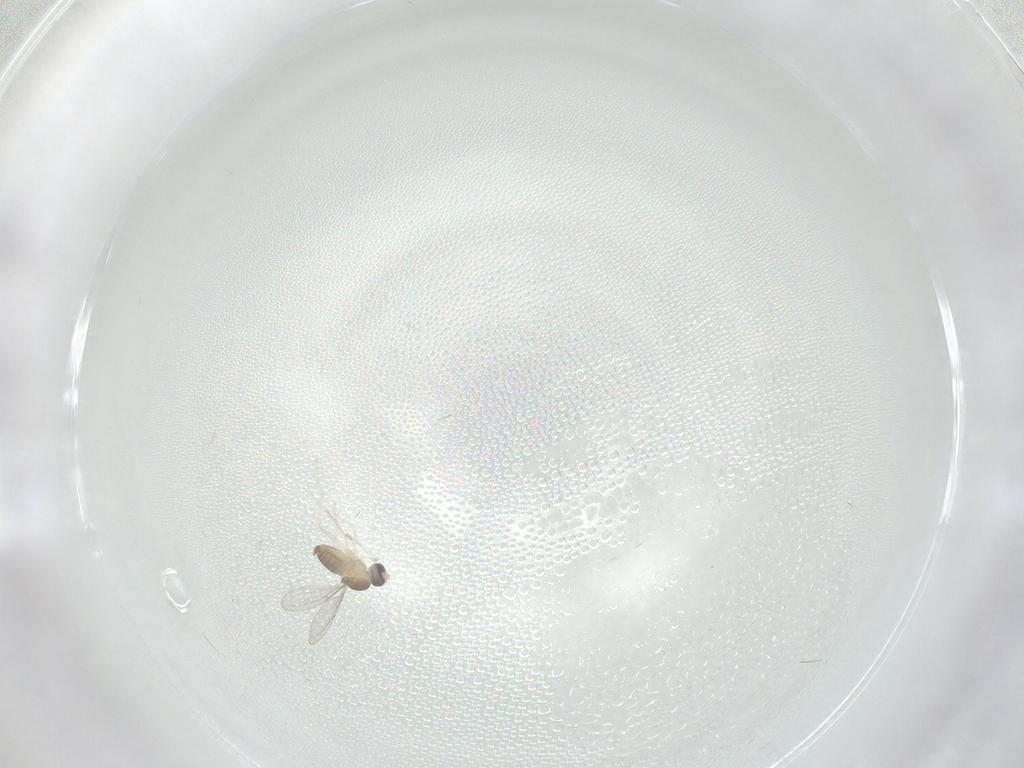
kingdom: Animalia
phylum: Arthropoda
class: Insecta
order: Diptera
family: Cecidomyiidae
